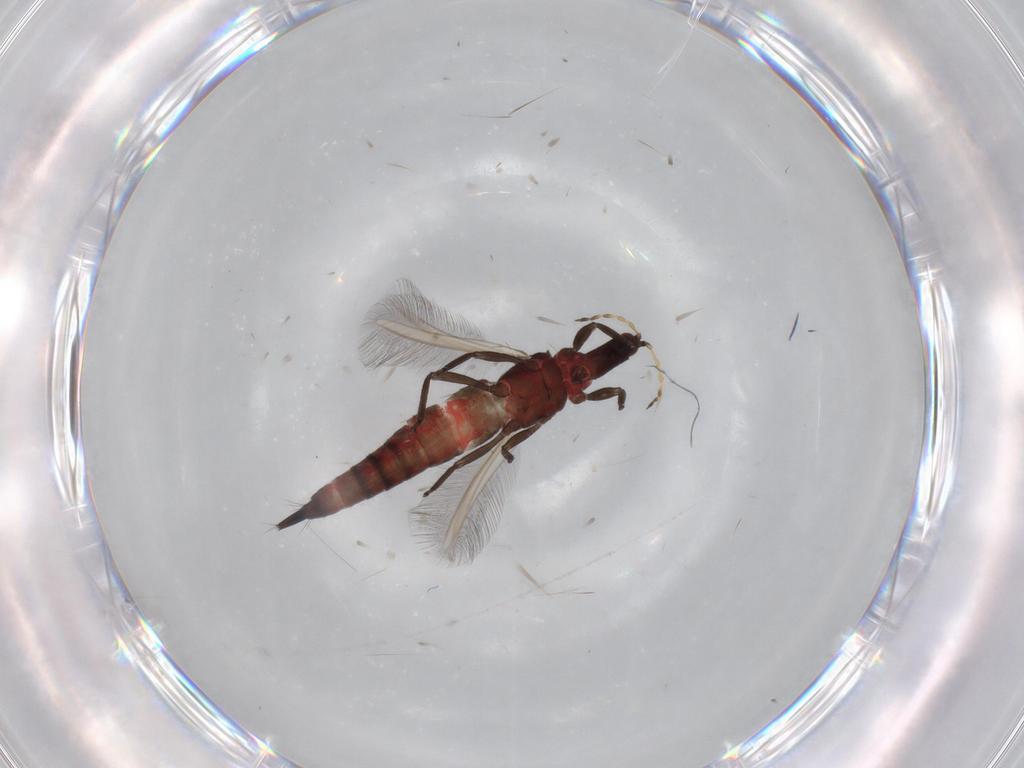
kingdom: Animalia
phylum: Arthropoda
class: Insecta
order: Thysanoptera
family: Phlaeothripidae
